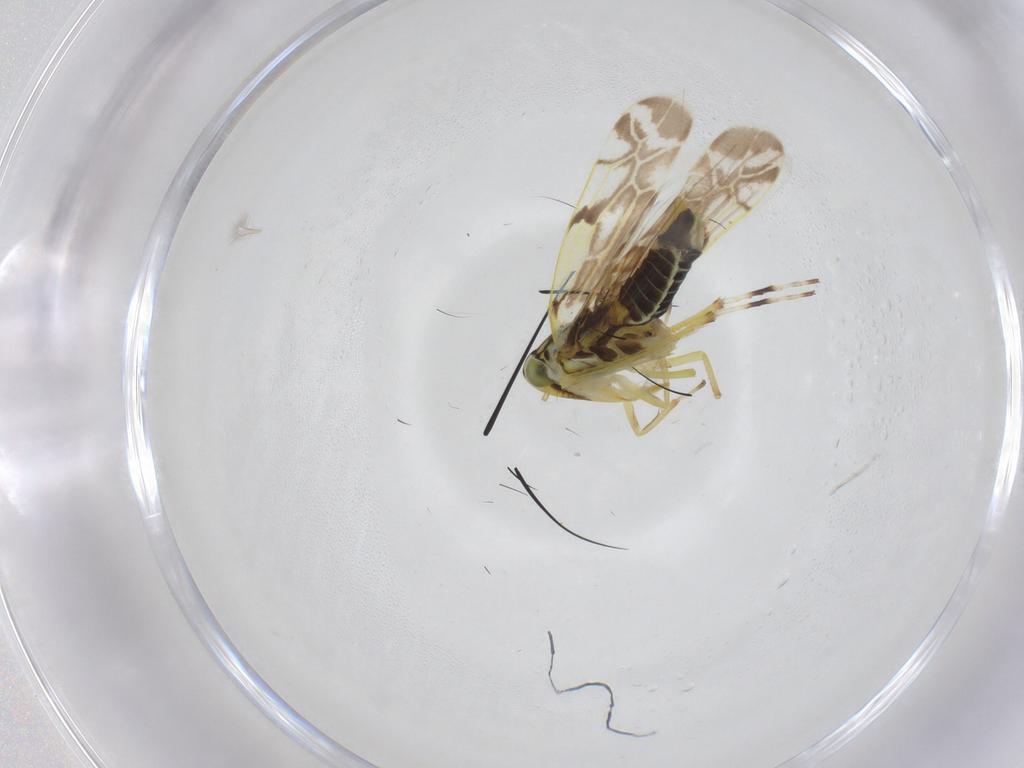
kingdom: Animalia
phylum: Arthropoda
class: Insecta
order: Hemiptera
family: Cicadellidae
